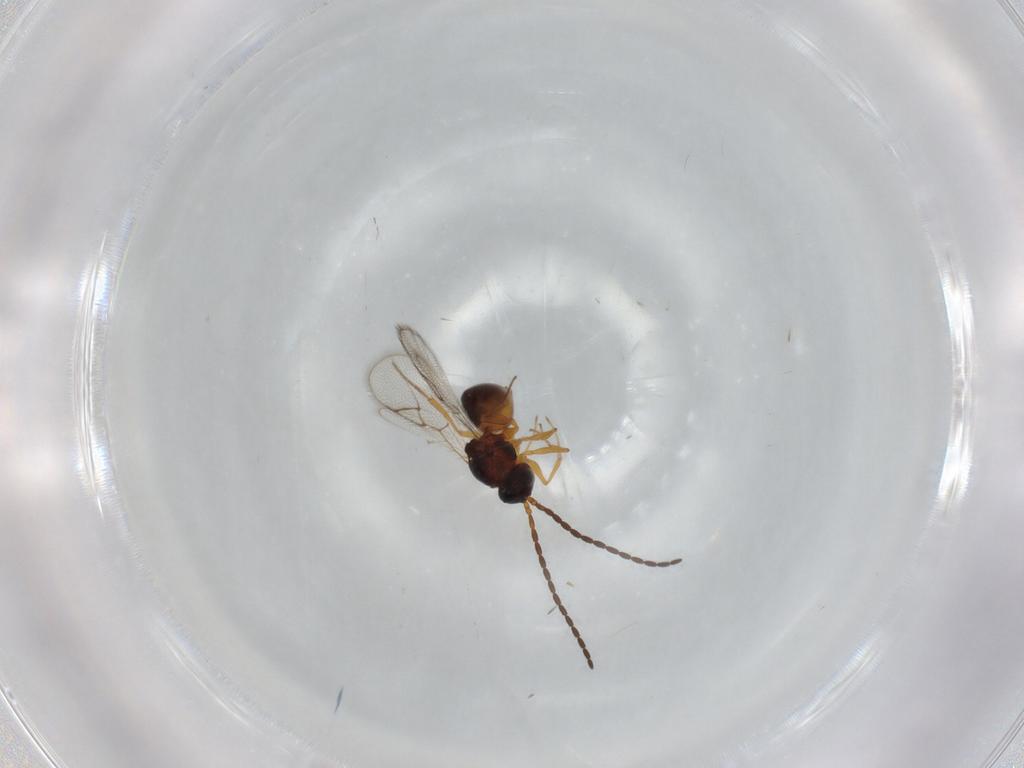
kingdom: Animalia
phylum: Arthropoda
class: Insecta
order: Hymenoptera
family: Figitidae
